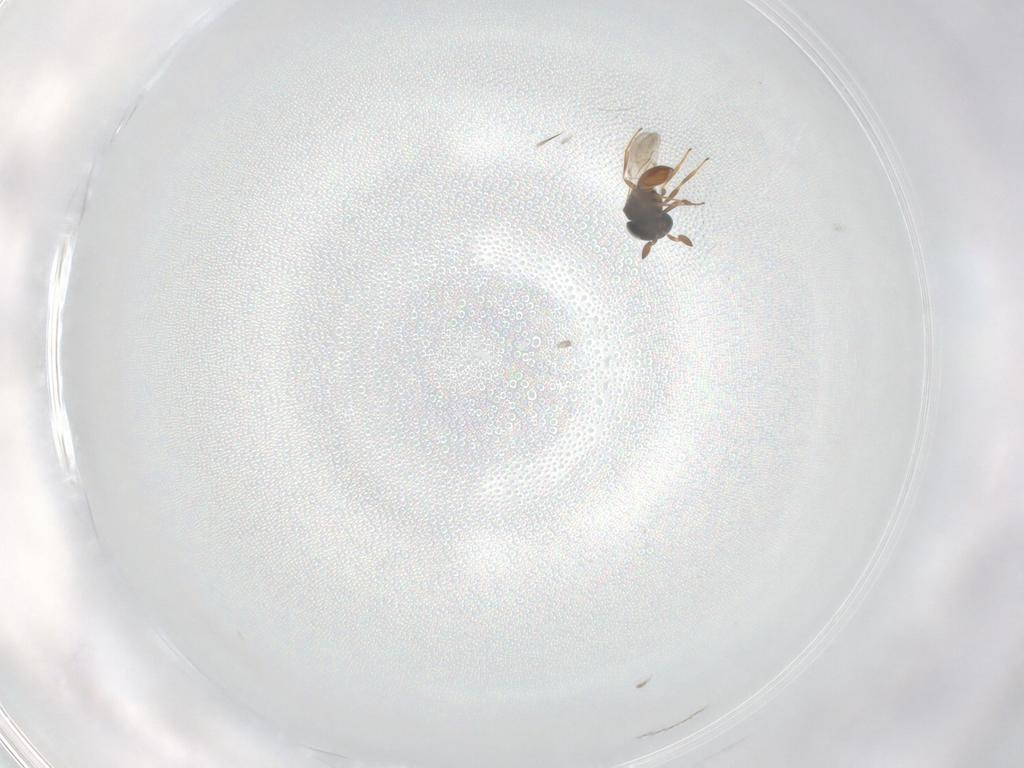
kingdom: Animalia
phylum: Arthropoda
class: Insecta
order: Hymenoptera
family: Scelionidae
